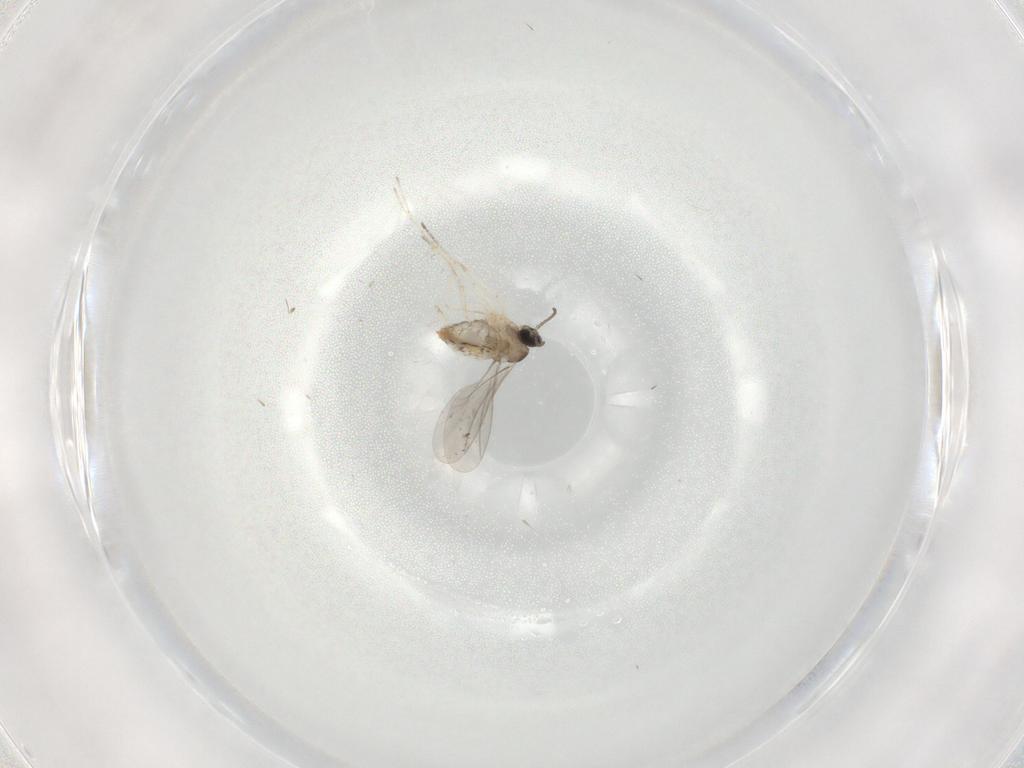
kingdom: Animalia
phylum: Arthropoda
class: Insecta
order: Diptera
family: Cecidomyiidae
